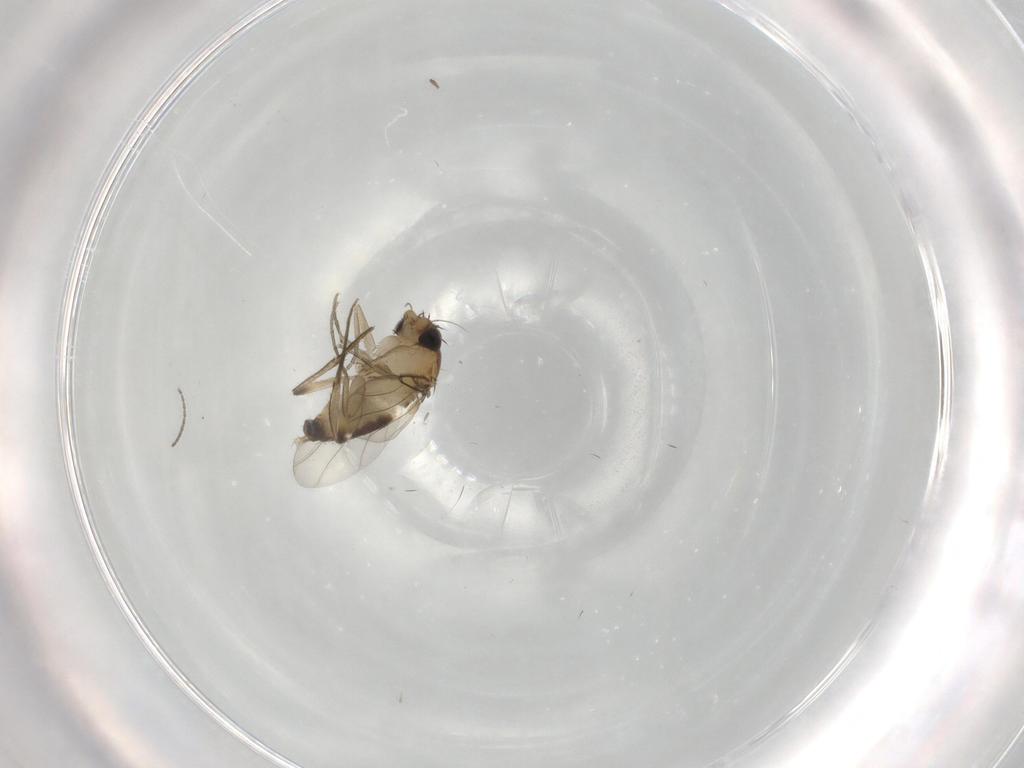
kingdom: Animalia
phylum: Arthropoda
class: Insecta
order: Diptera
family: Phoridae
